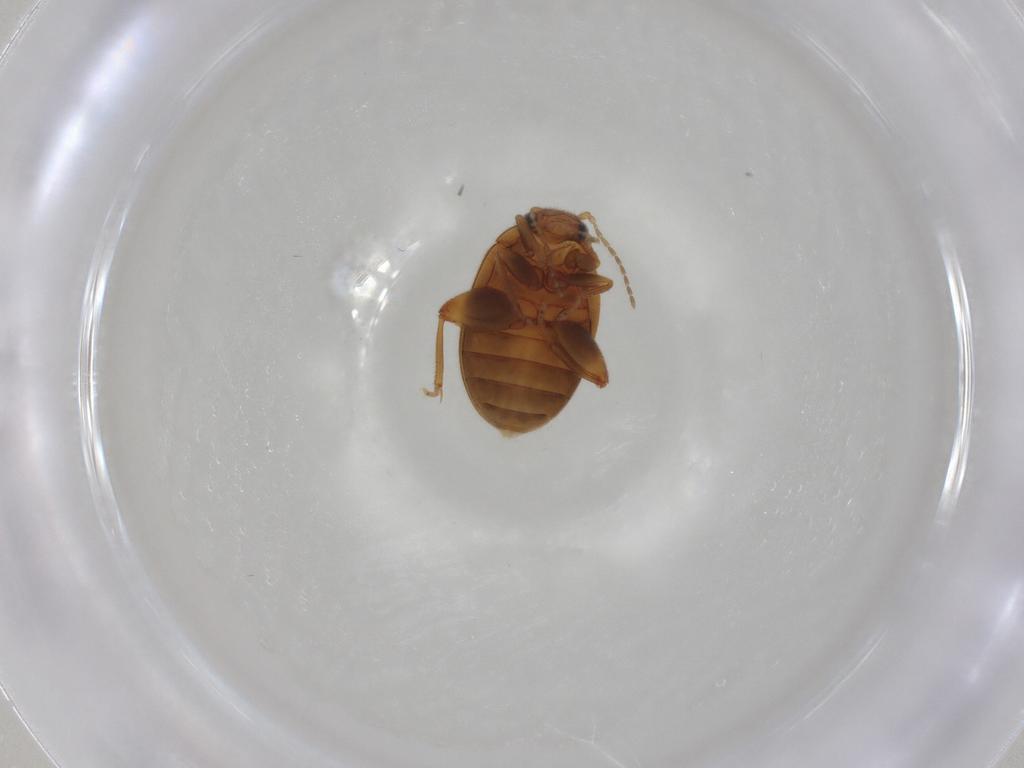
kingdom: Animalia
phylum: Arthropoda
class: Insecta
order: Coleoptera
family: Scirtidae
